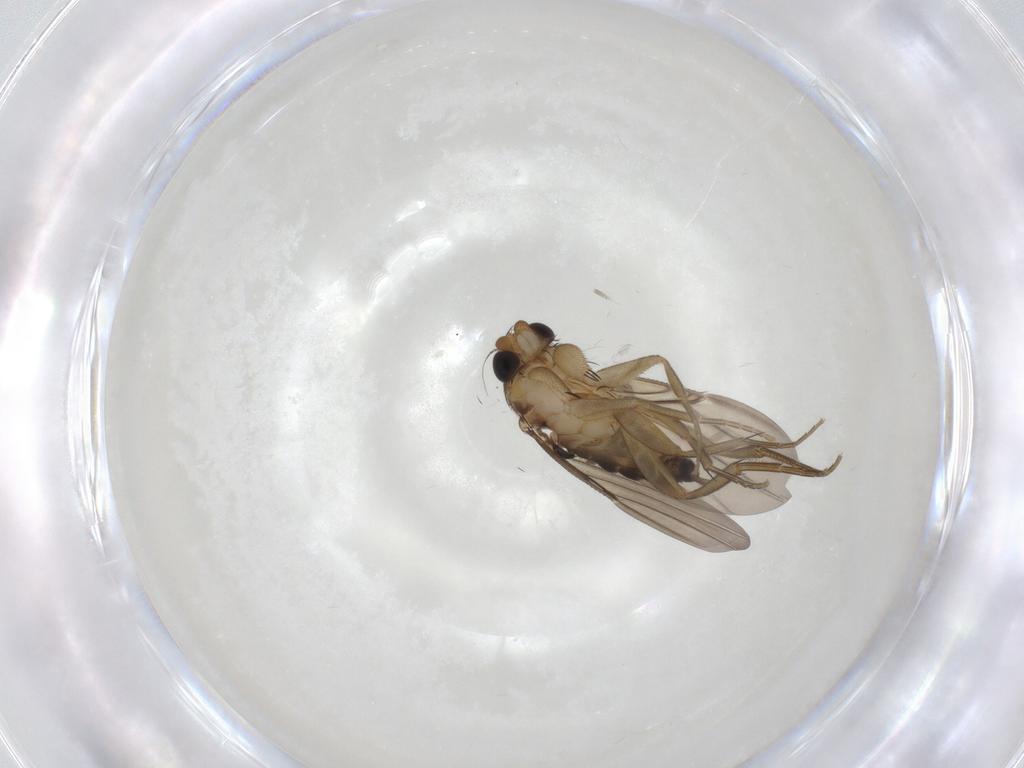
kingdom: Animalia
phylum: Arthropoda
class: Insecta
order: Diptera
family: Phoridae
